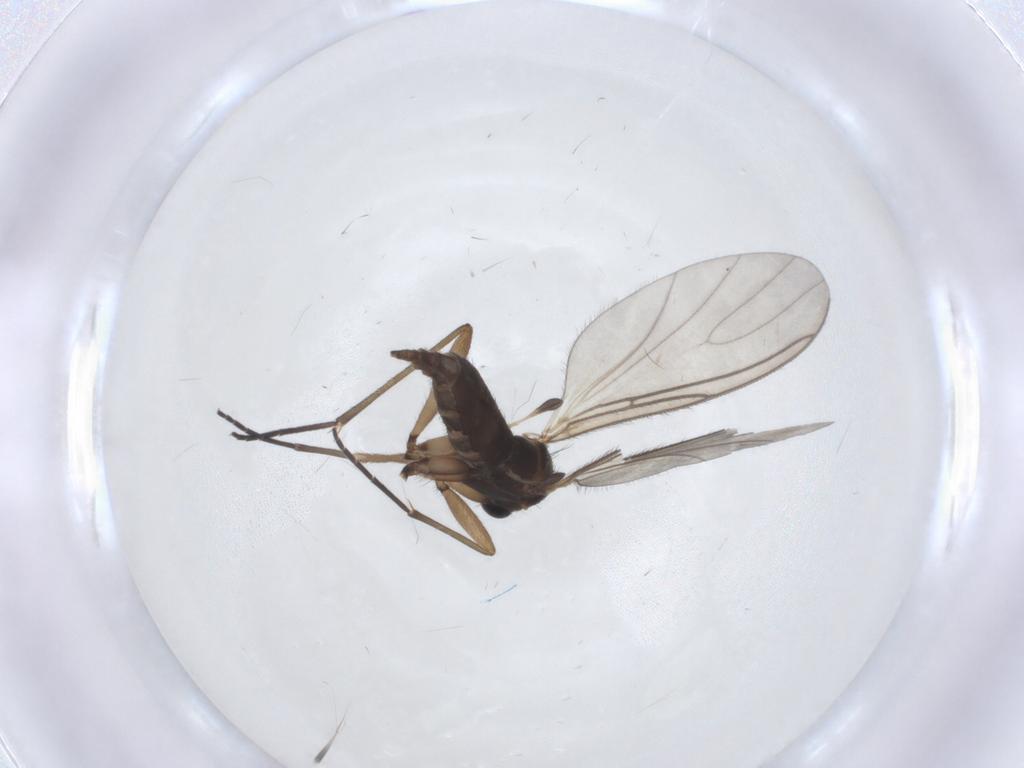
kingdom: Animalia
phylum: Arthropoda
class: Insecta
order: Diptera
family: Sciaridae
